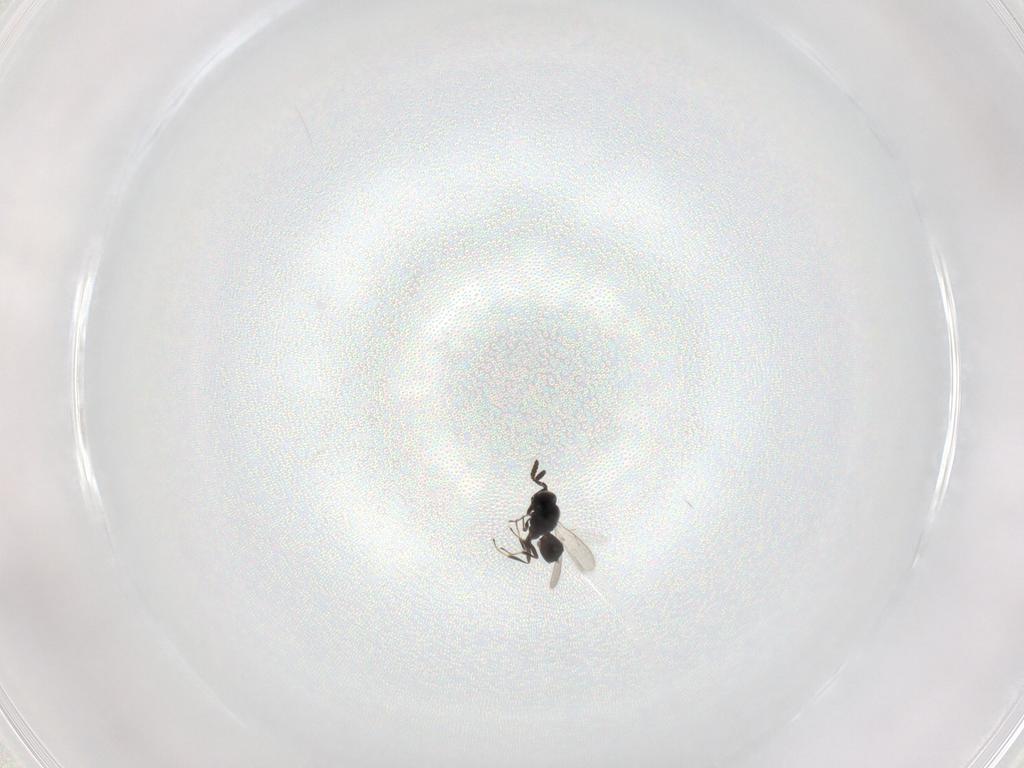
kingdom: Animalia
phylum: Arthropoda
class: Insecta
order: Hymenoptera
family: Scelionidae
